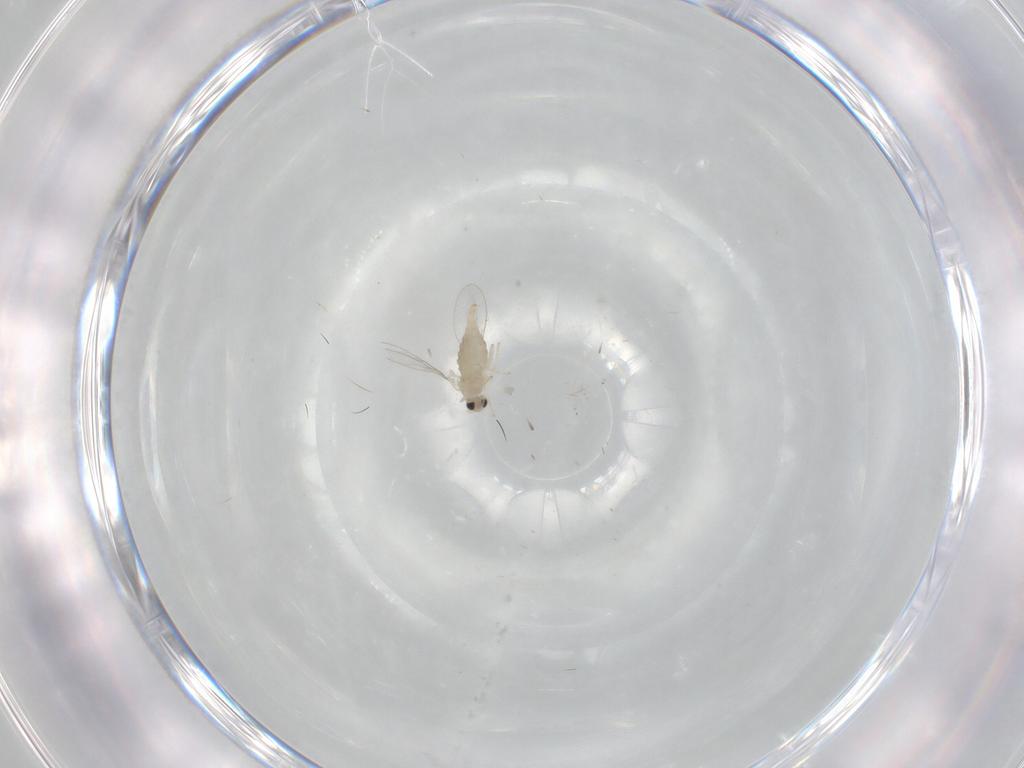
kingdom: Animalia
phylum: Arthropoda
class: Insecta
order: Diptera
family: Cecidomyiidae
